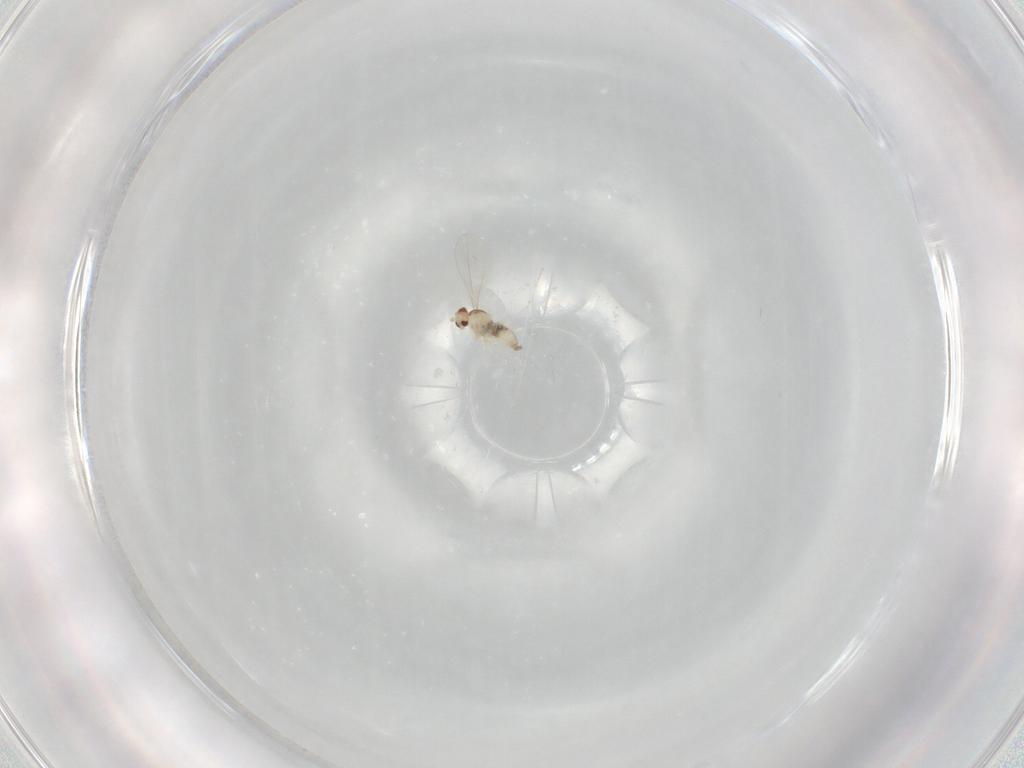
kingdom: Animalia
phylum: Arthropoda
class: Insecta
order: Diptera
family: Cecidomyiidae
